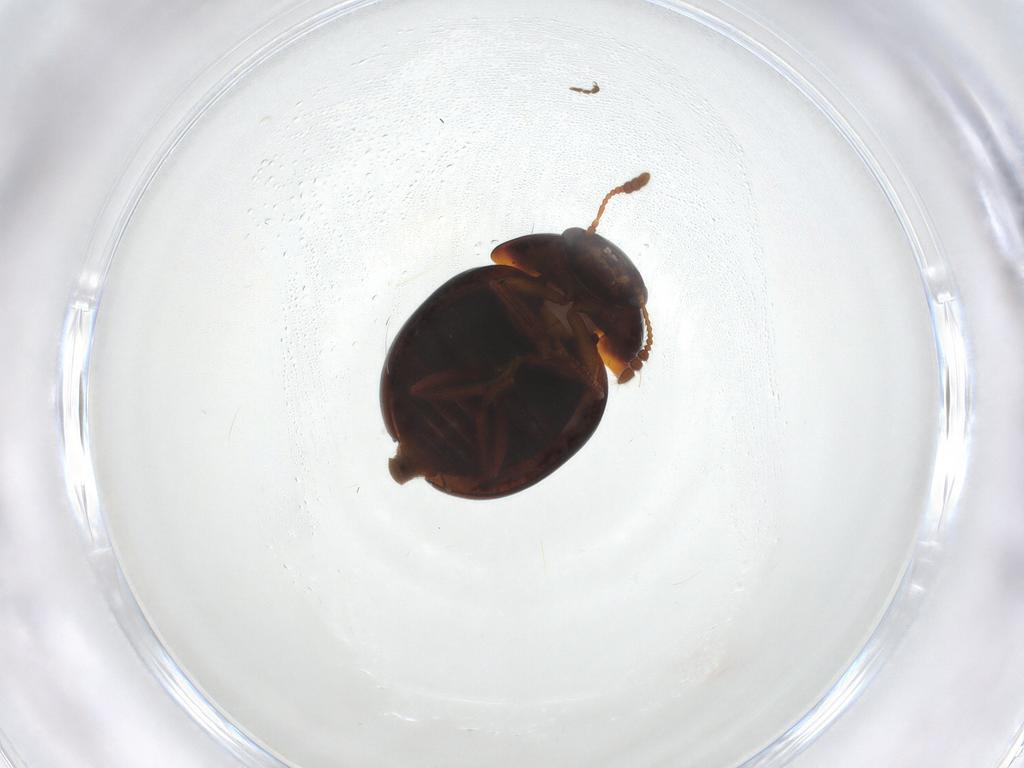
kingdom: Animalia
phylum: Arthropoda
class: Insecta
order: Coleoptera
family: Leiodidae
